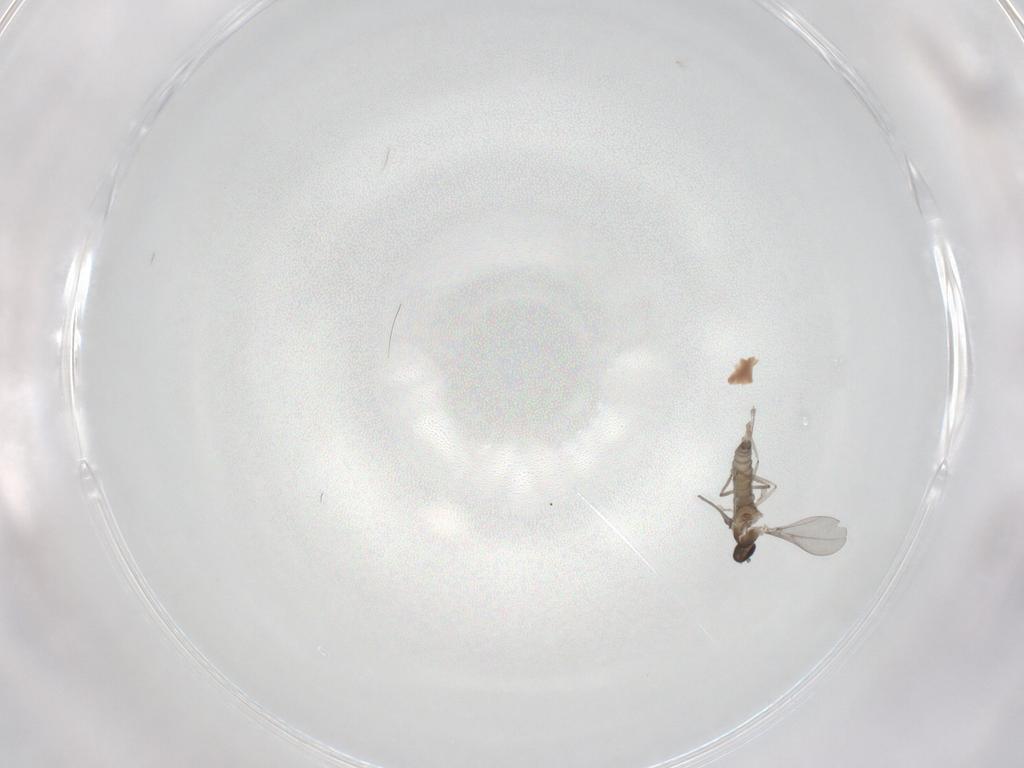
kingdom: Animalia
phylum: Arthropoda
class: Insecta
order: Diptera
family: Cecidomyiidae
